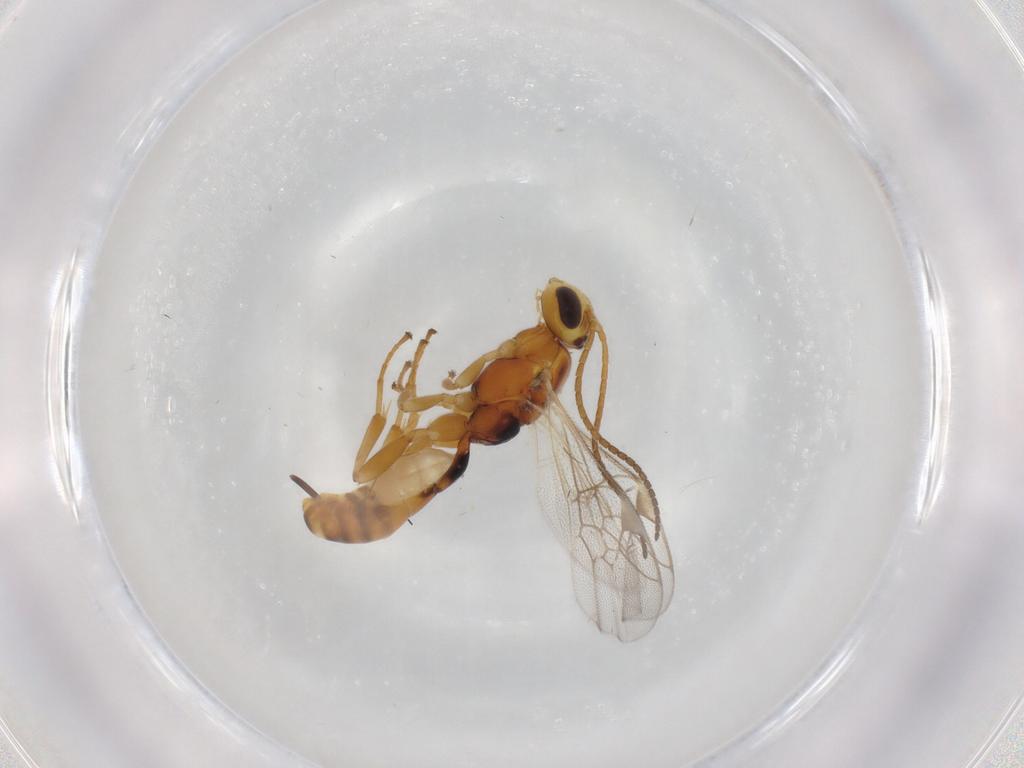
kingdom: Animalia
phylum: Arthropoda
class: Insecta
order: Hymenoptera
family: Ichneumonidae
